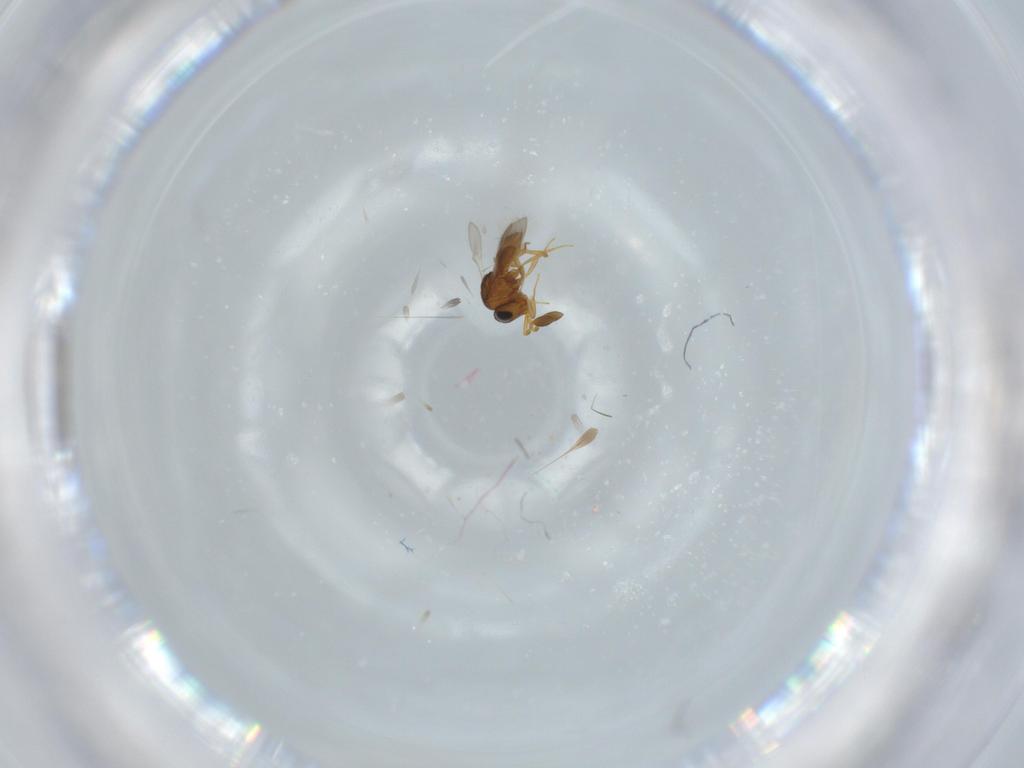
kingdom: Animalia
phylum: Arthropoda
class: Insecta
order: Hymenoptera
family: Scelionidae
